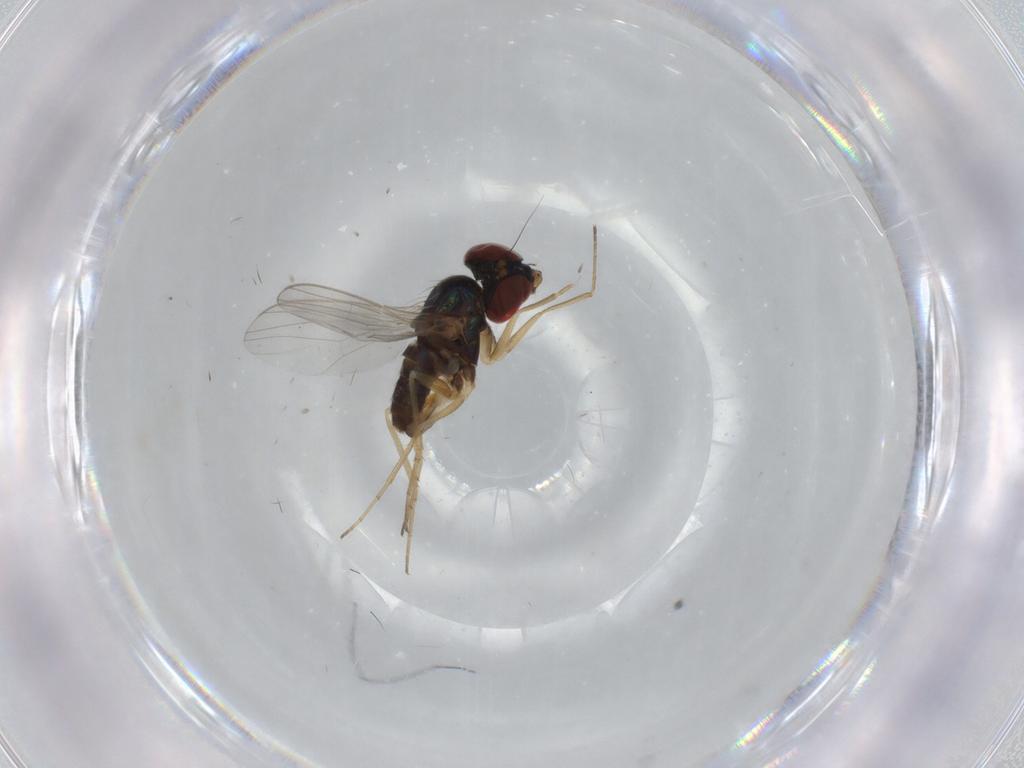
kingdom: Animalia
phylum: Arthropoda
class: Insecta
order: Diptera
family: Dolichopodidae
